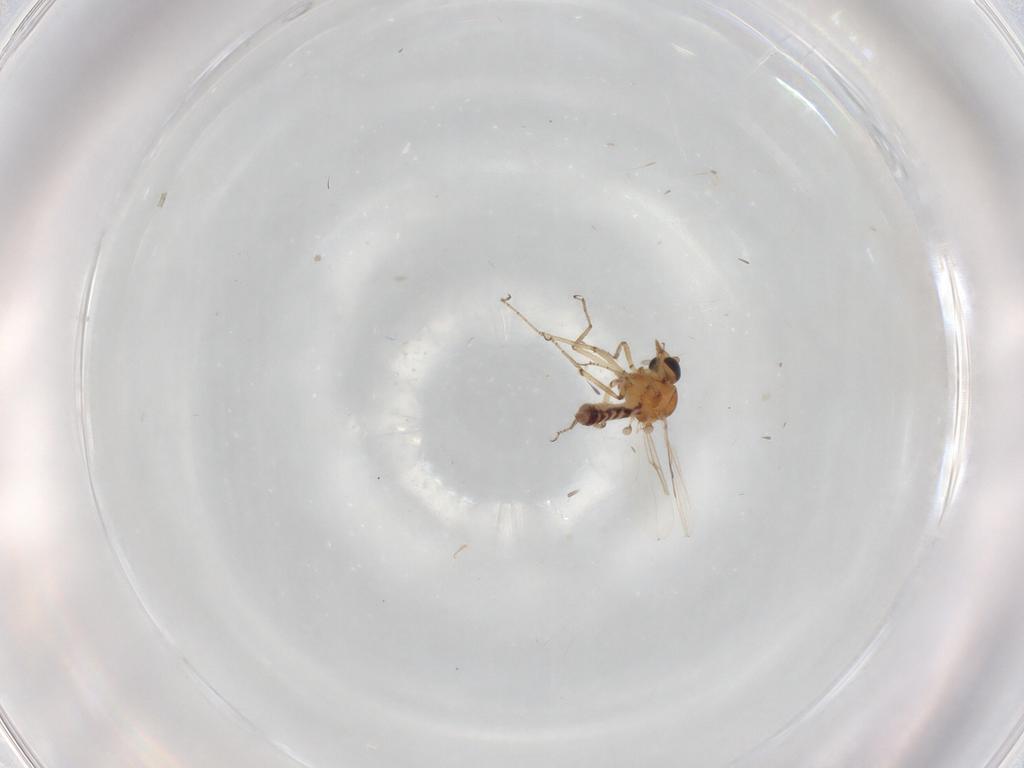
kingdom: Animalia
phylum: Arthropoda
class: Insecta
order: Diptera
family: Ceratopogonidae
